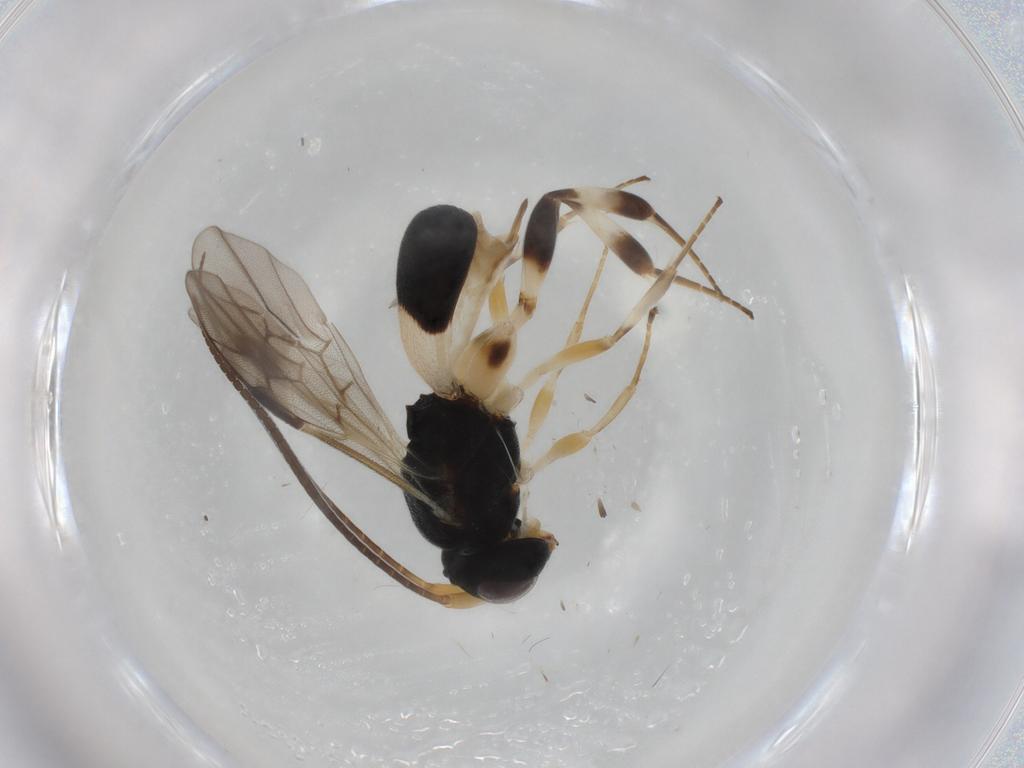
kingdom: Animalia
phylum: Arthropoda
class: Insecta
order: Hymenoptera
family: Braconidae
